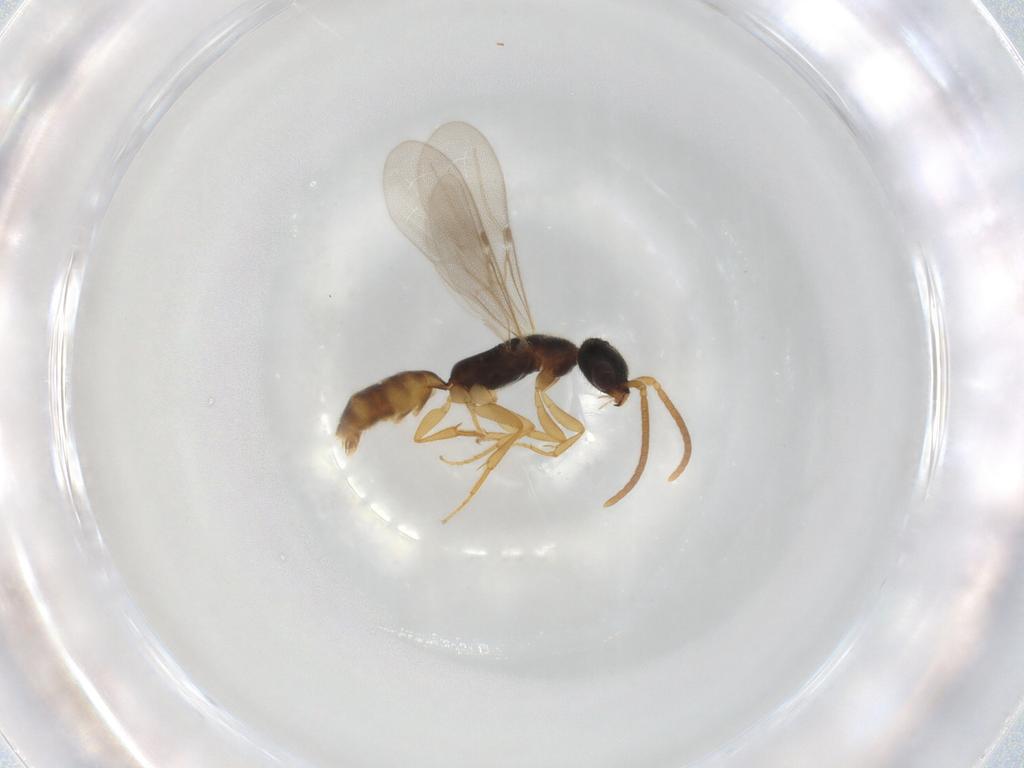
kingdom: Animalia
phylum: Arthropoda
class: Insecta
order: Hymenoptera
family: Bethylidae
